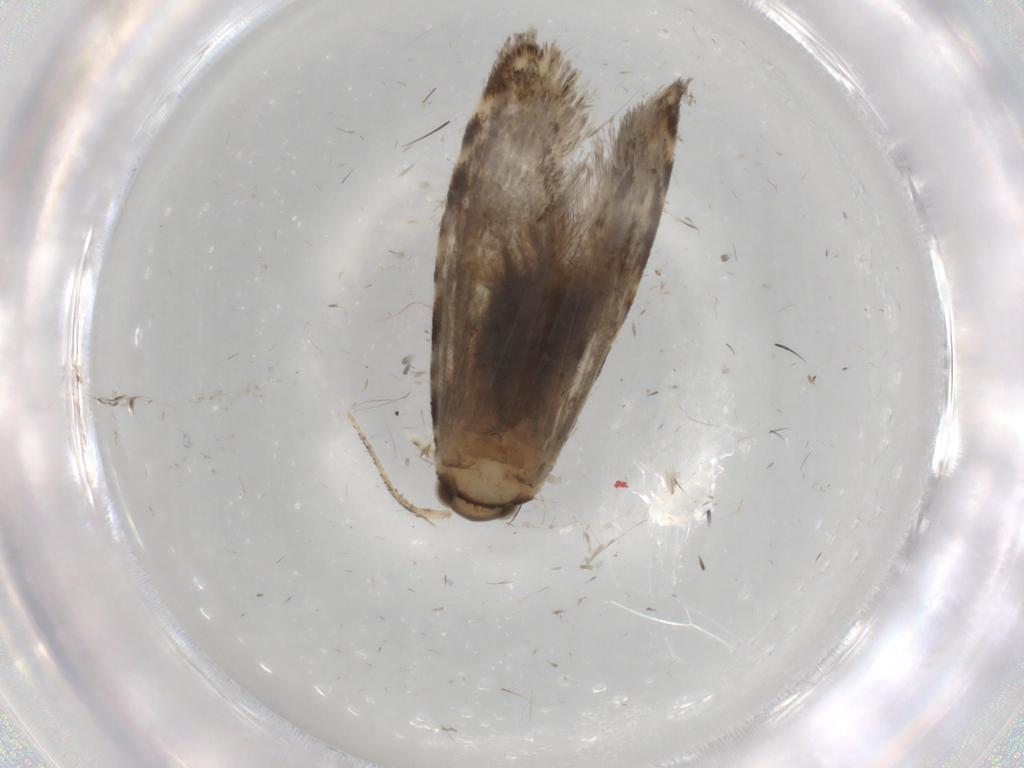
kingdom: Animalia
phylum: Arthropoda
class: Insecta
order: Lepidoptera
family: Tineidae
